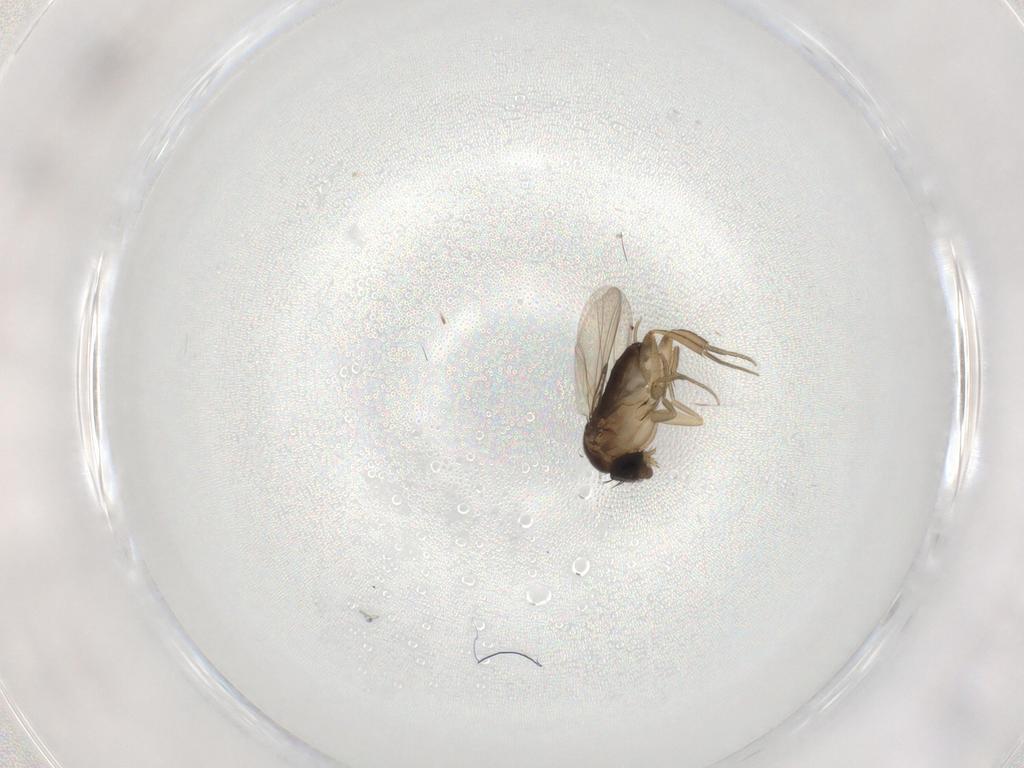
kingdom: Animalia
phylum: Arthropoda
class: Insecta
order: Diptera
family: Phoridae
